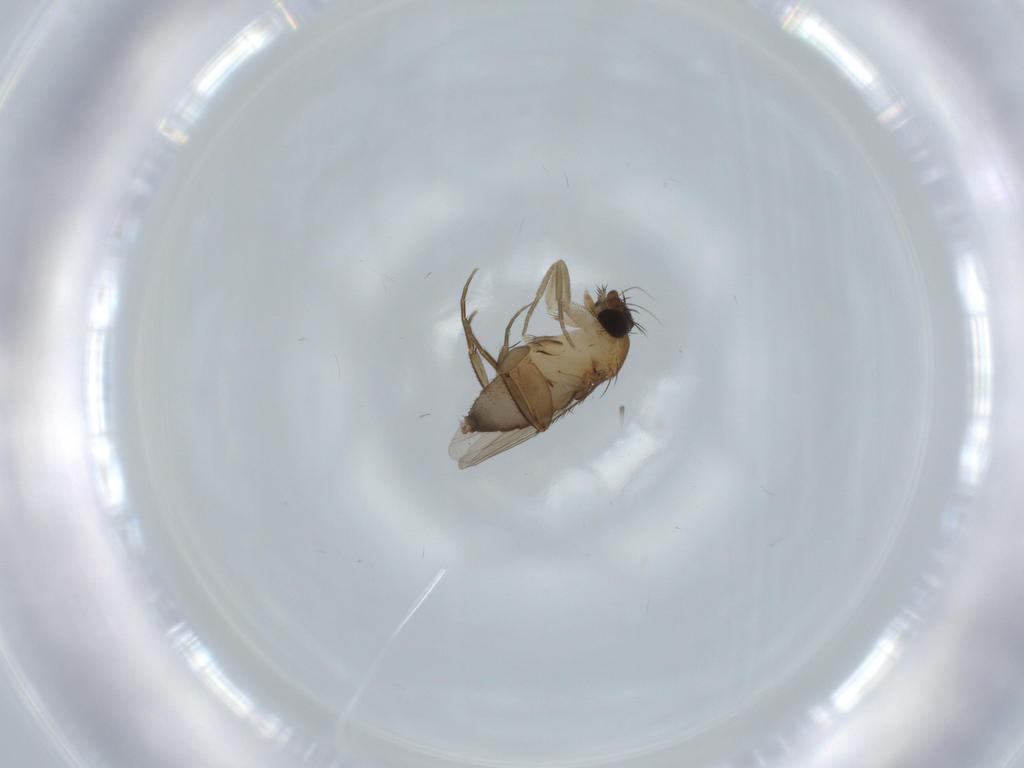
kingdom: Animalia
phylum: Arthropoda
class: Insecta
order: Diptera
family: Phoridae
